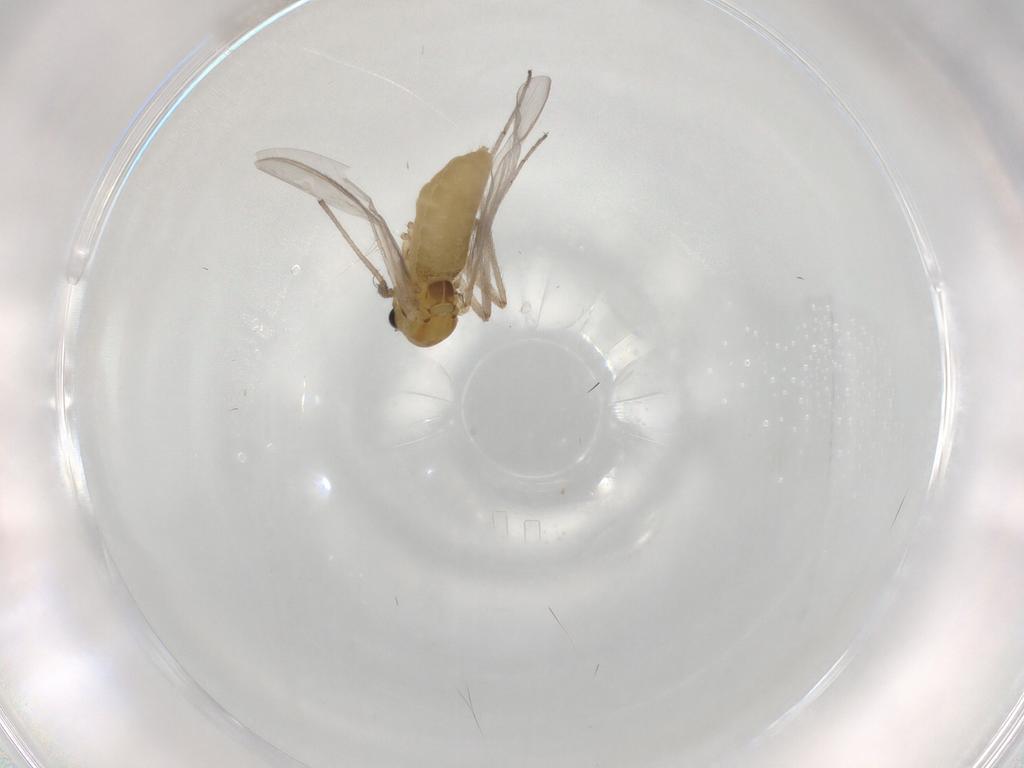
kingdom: Animalia
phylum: Arthropoda
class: Insecta
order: Diptera
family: Chironomidae
